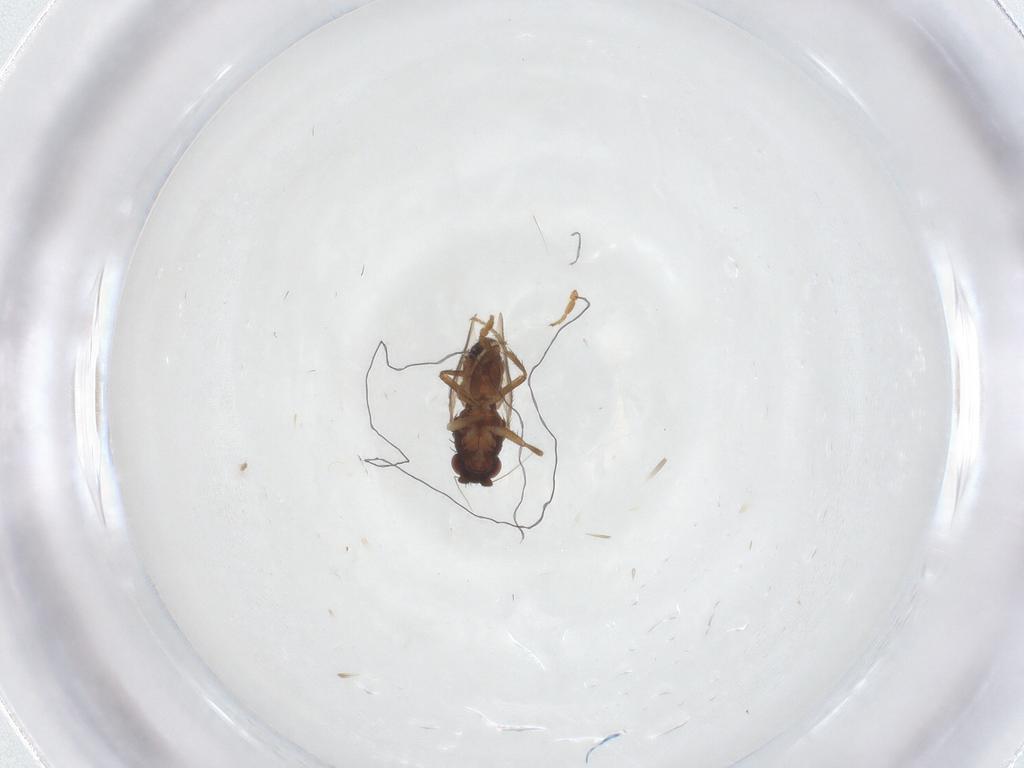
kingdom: Animalia
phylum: Arthropoda
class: Insecta
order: Diptera
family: Sphaeroceridae
